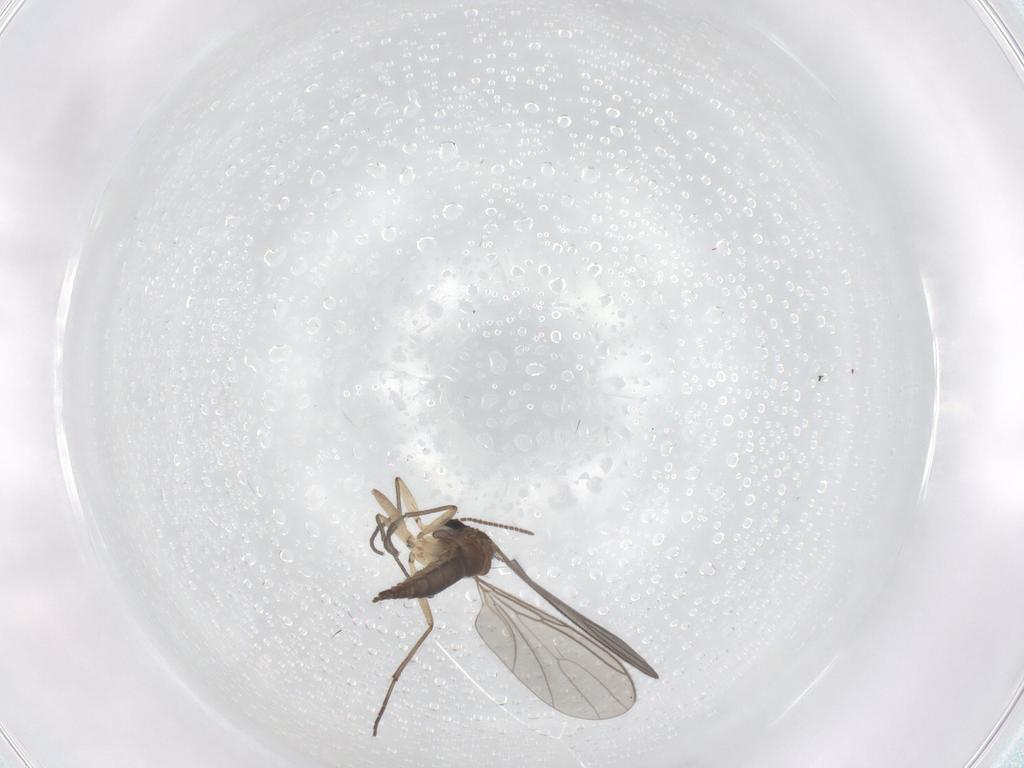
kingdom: Animalia
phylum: Arthropoda
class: Insecta
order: Diptera
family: Sciaridae
